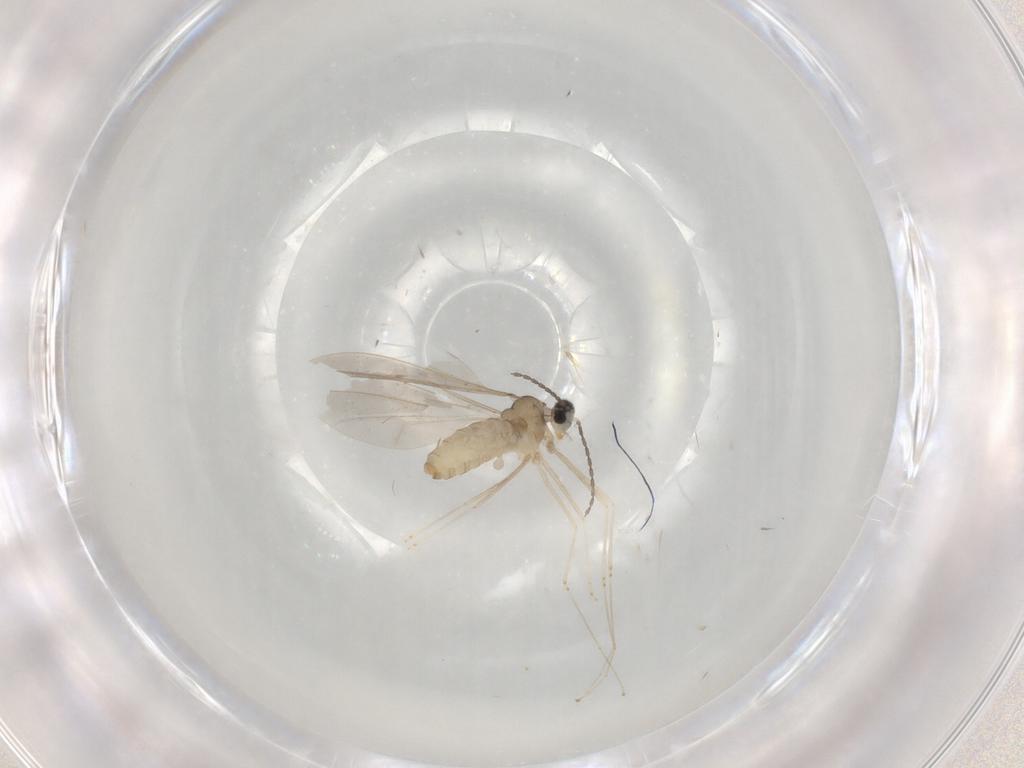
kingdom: Animalia
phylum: Arthropoda
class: Insecta
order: Diptera
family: Cecidomyiidae
